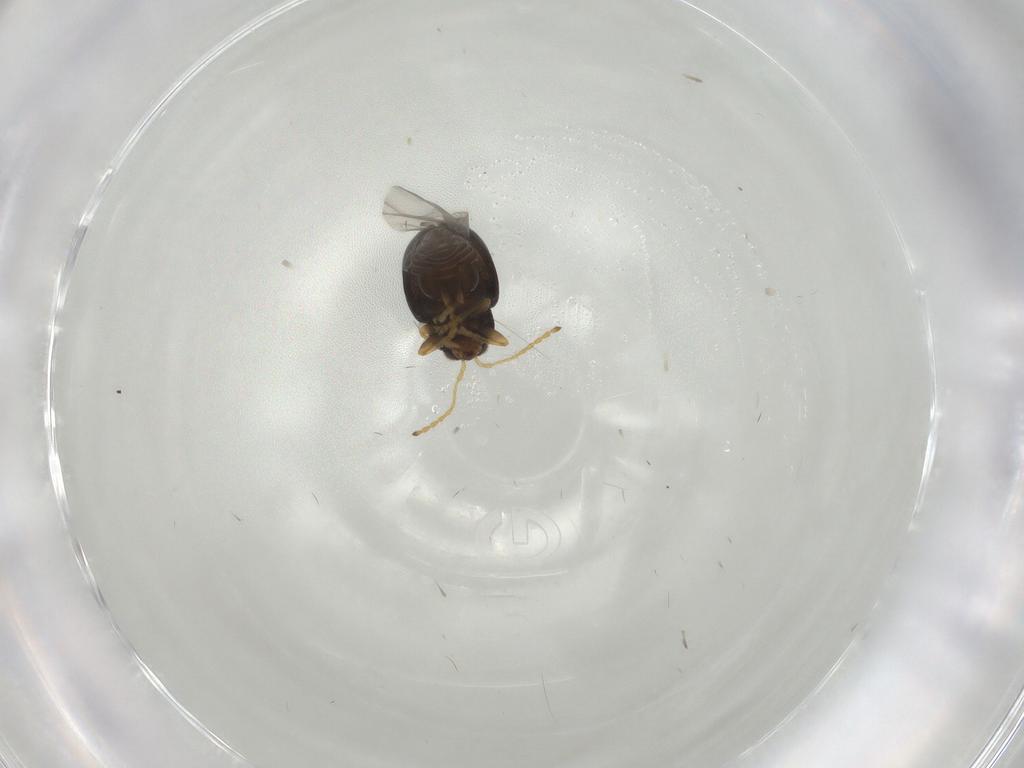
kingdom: Animalia
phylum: Arthropoda
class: Insecta
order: Coleoptera
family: Mordellidae
